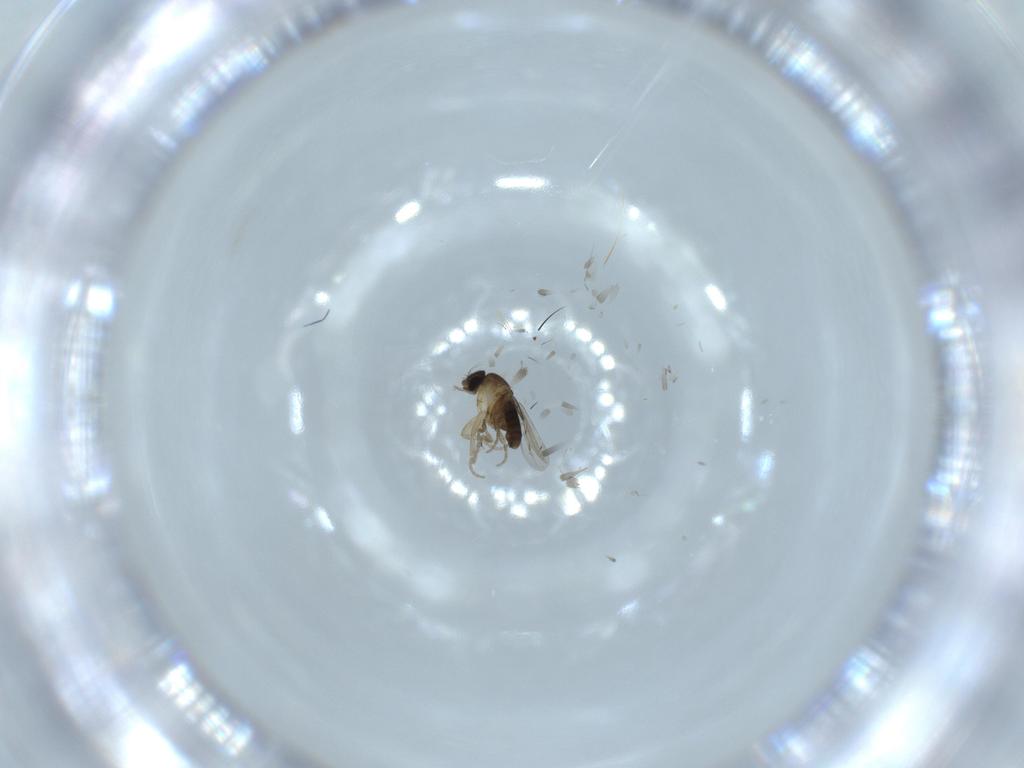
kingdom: Animalia
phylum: Arthropoda
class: Insecta
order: Diptera
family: Phoridae
